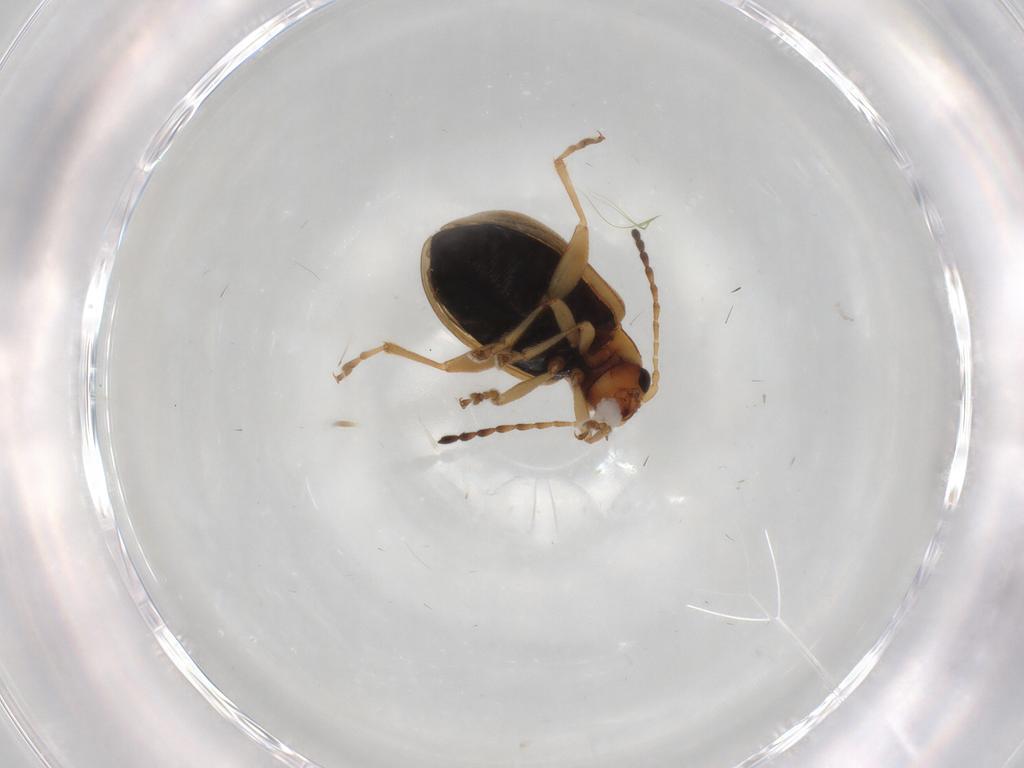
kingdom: Animalia
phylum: Arthropoda
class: Insecta
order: Coleoptera
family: Chrysomelidae
